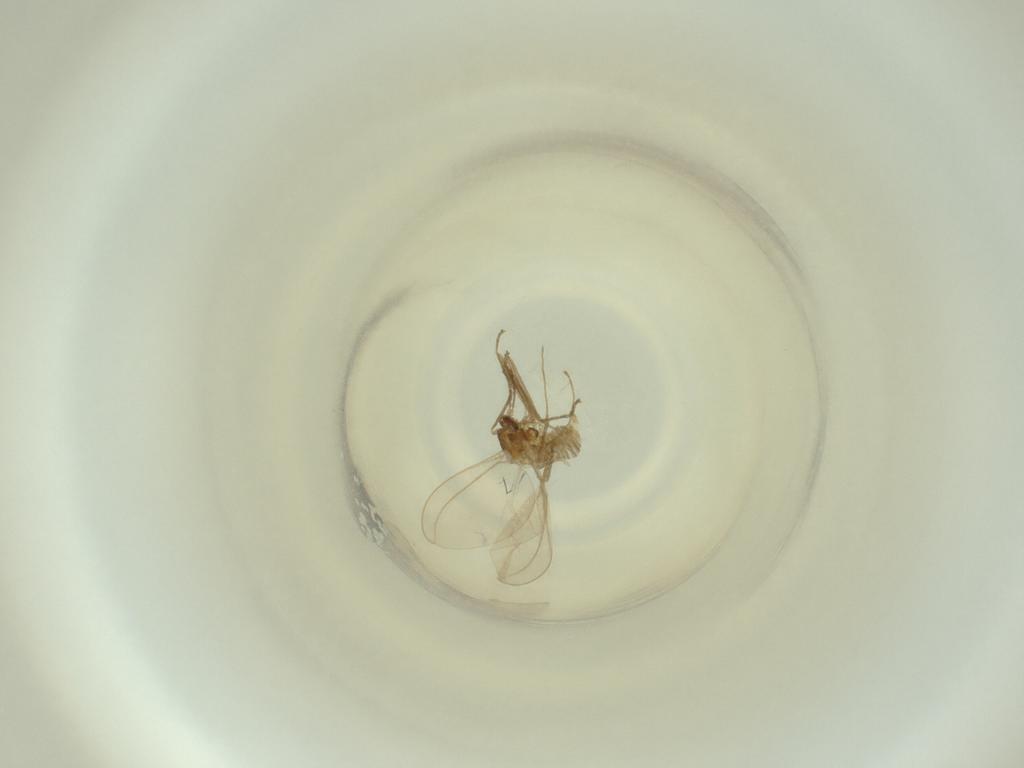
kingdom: Animalia
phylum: Arthropoda
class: Insecta
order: Diptera
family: Cecidomyiidae
